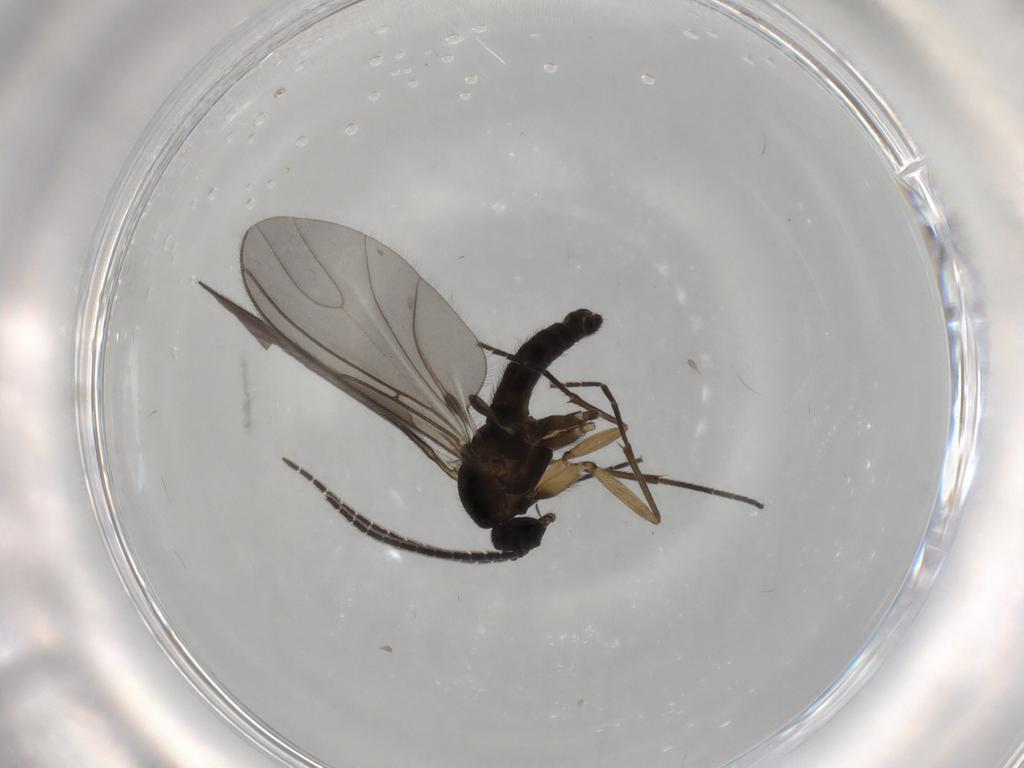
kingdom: Animalia
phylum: Arthropoda
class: Insecta
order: Diptera
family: Sciaridae
